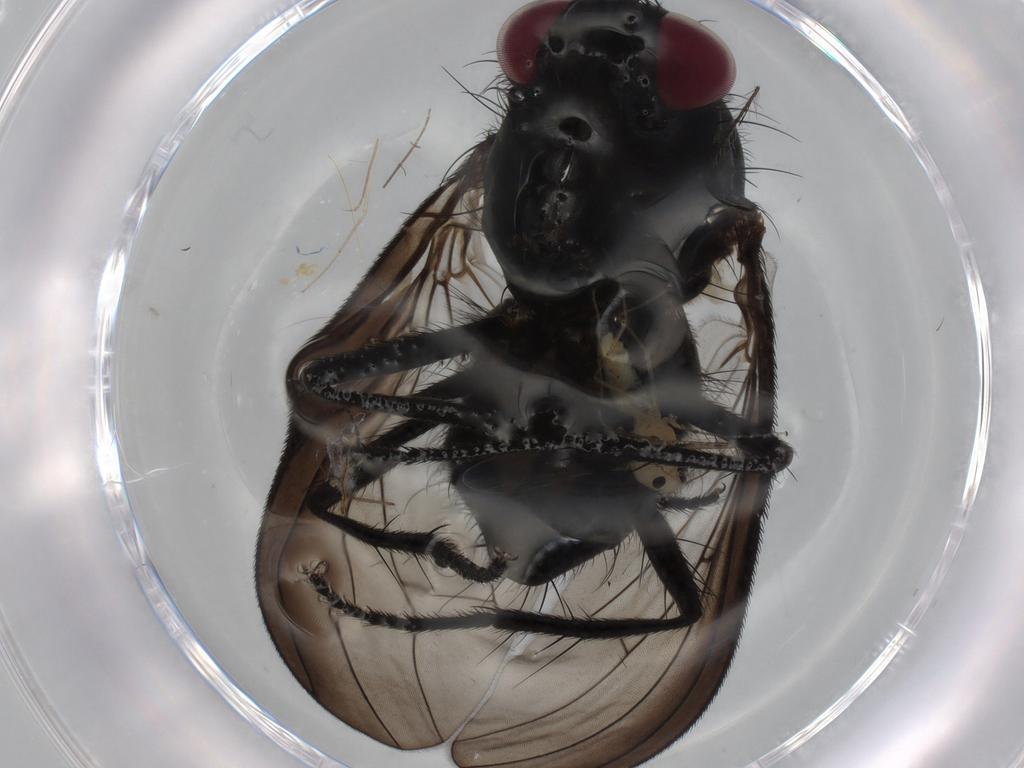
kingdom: Animalia
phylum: Arthropoda
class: Insecta
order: Diptera
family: Fannia
